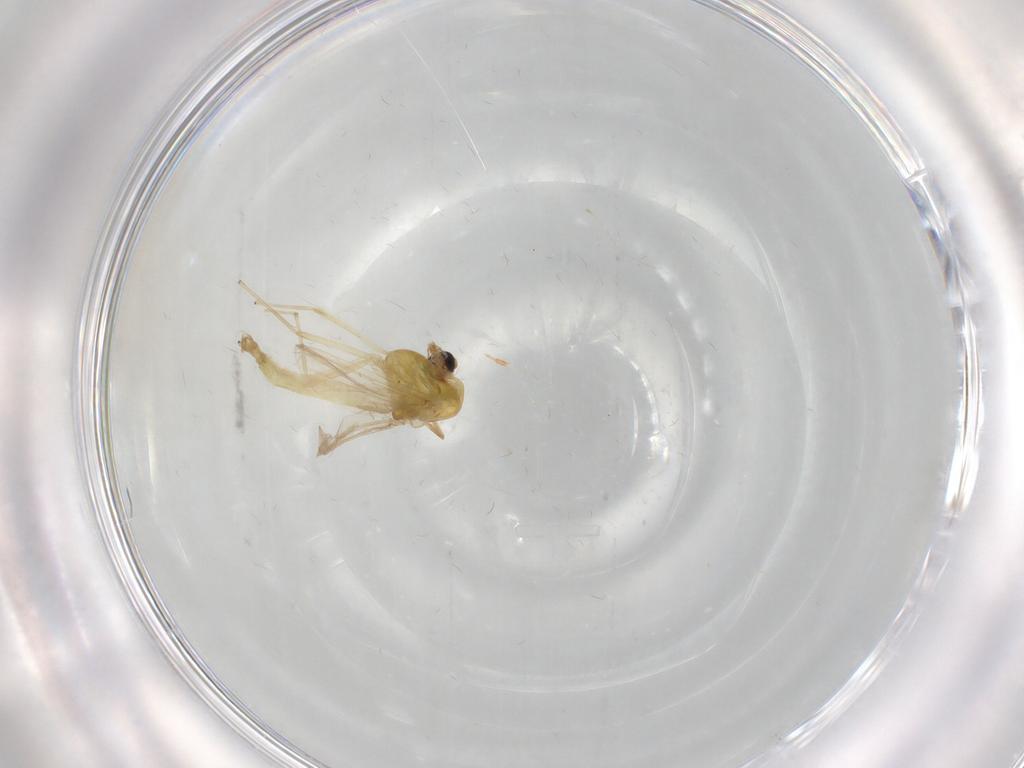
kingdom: Animalia
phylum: Arthropoda
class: Insecta
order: Diptera
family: Chironomidae
